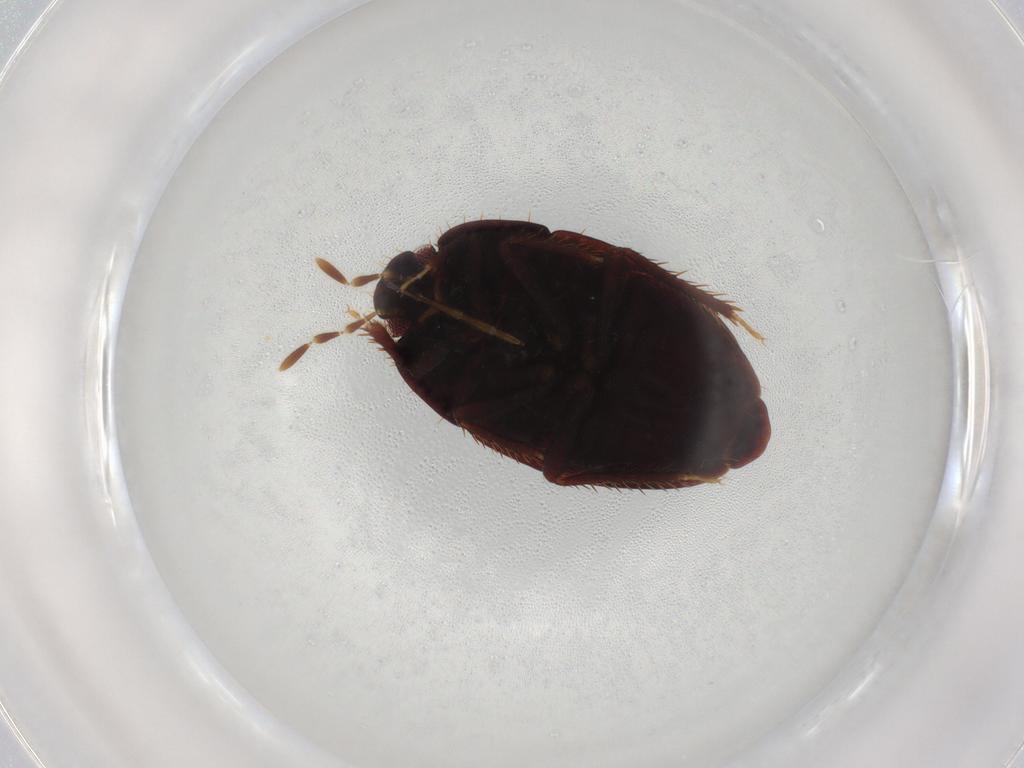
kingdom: Animalia
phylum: Arthropoda
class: Insecta
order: Hemiptera
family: Cydnidae
